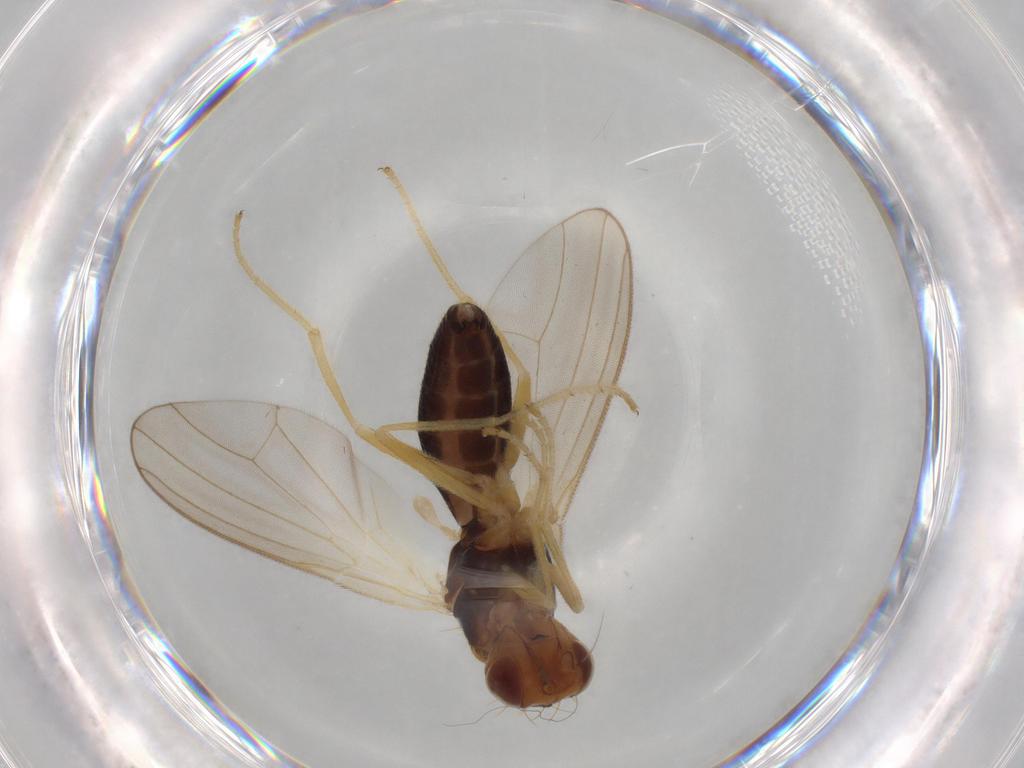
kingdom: Animalia
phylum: Arthropoda
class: Insecta
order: Diptera
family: Psilidae
